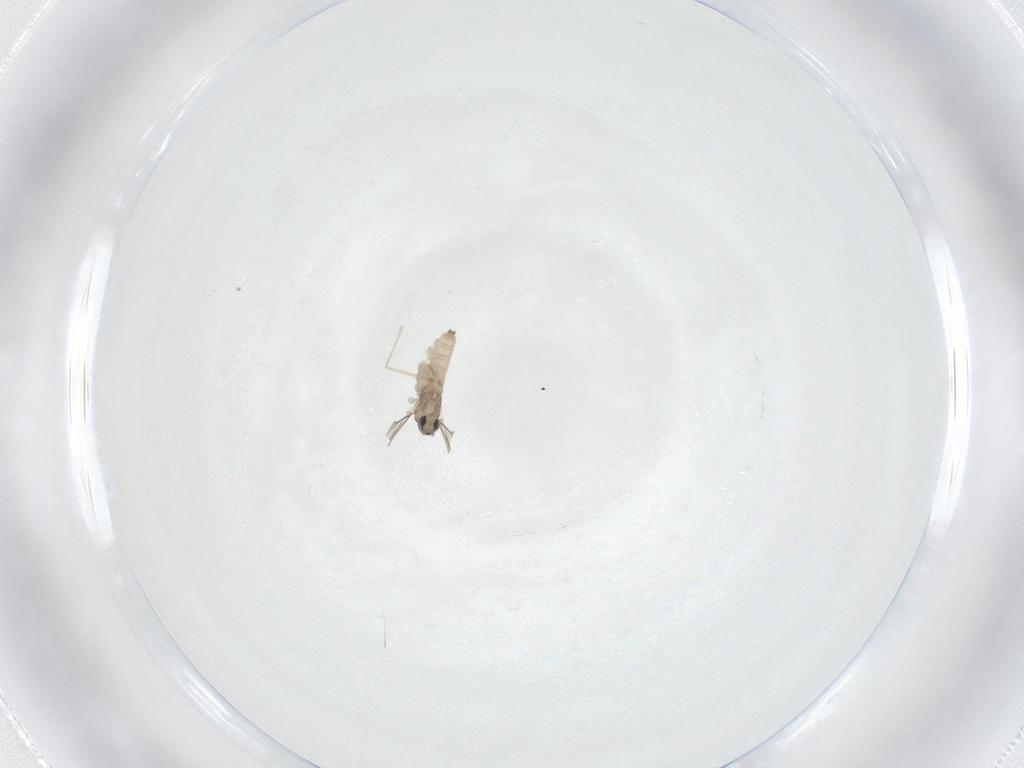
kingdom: Animalia
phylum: Arthropoda
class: Insecta
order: Diptera
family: Cecidomyiidae
